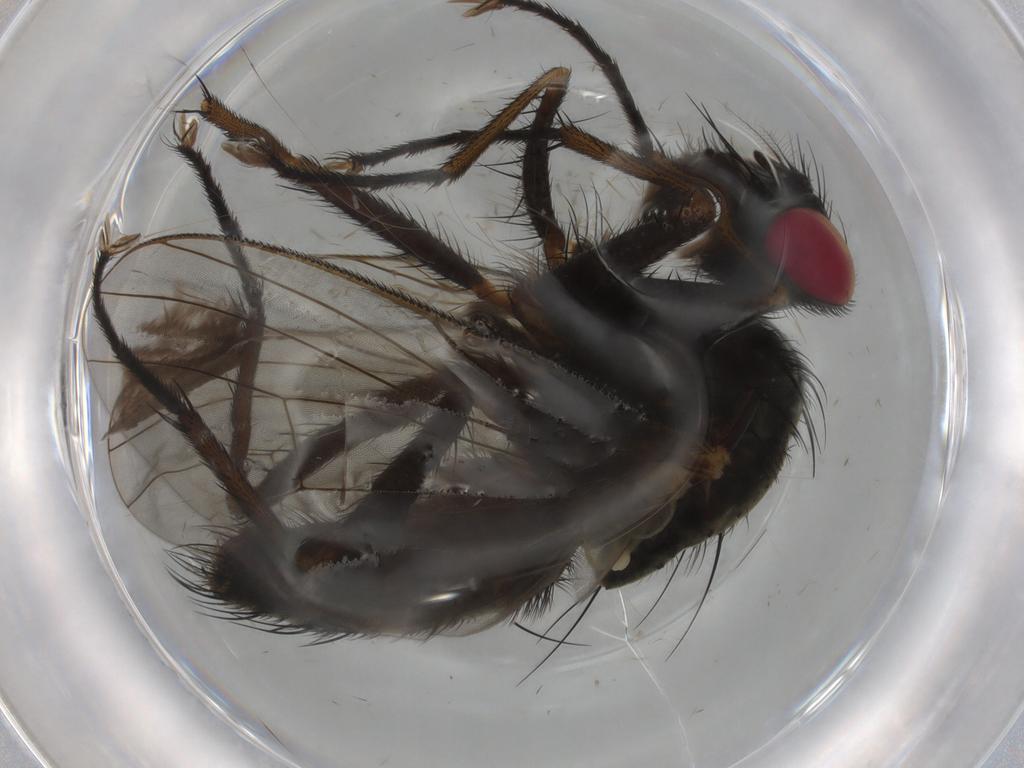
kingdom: Animalia
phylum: Arthropoda
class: Insecta
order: Diptera
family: Muscidae
